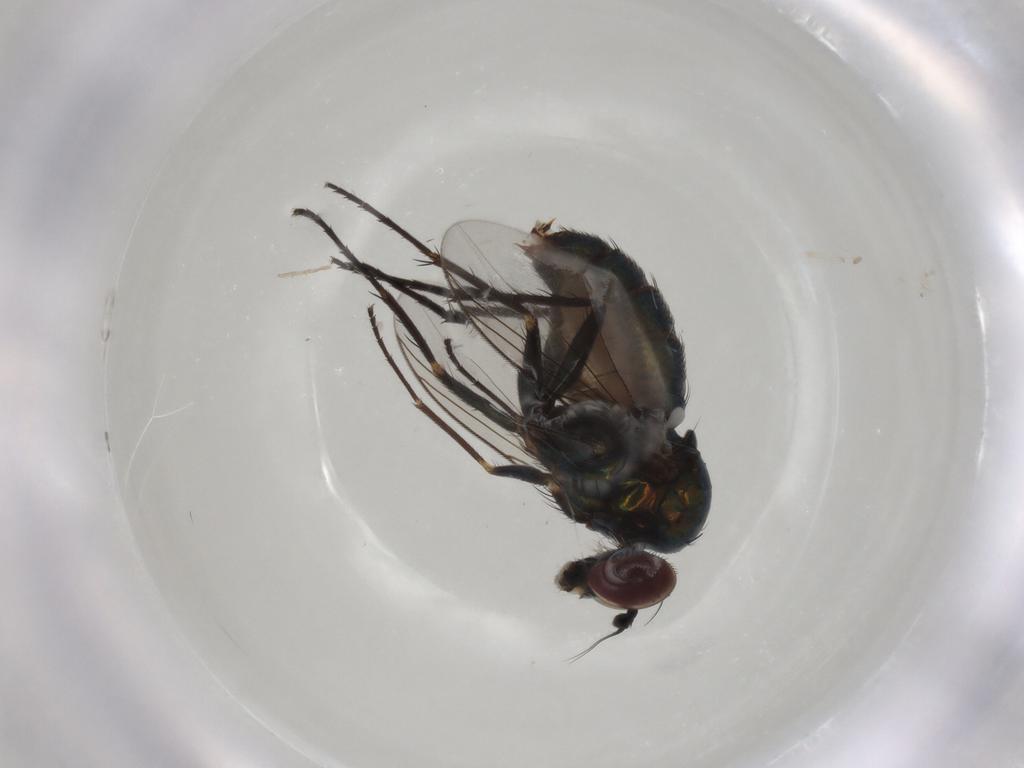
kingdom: Animalia
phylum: Arthropoda
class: Insecta
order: Diptera
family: Dolichopodidae
